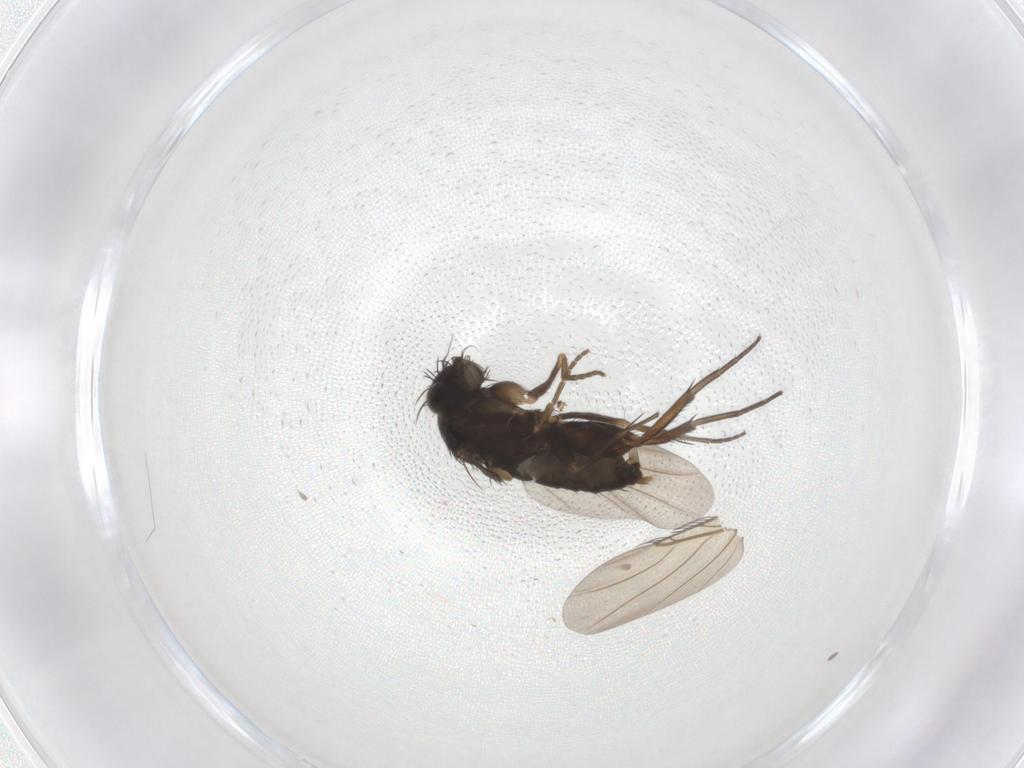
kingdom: Animalia
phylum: Arthropoda
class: Insecta
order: Diptera
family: Phoridae
